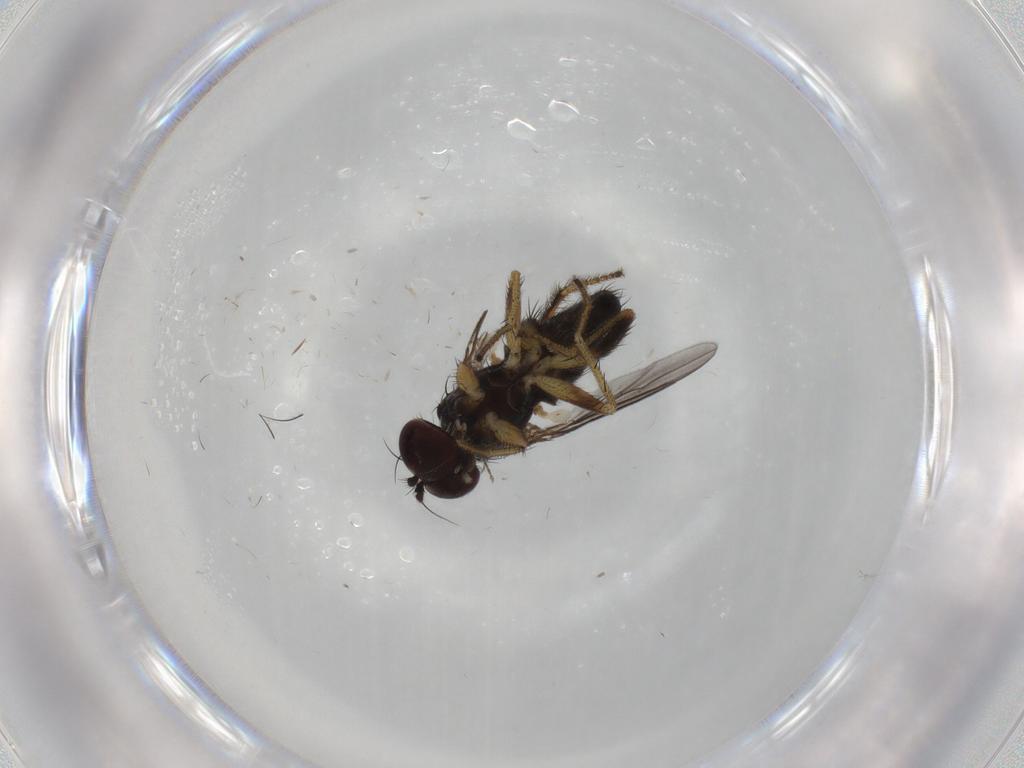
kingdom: Animalia
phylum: Arthropoda
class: Insecta
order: Diptera
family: Dolichopodidae
